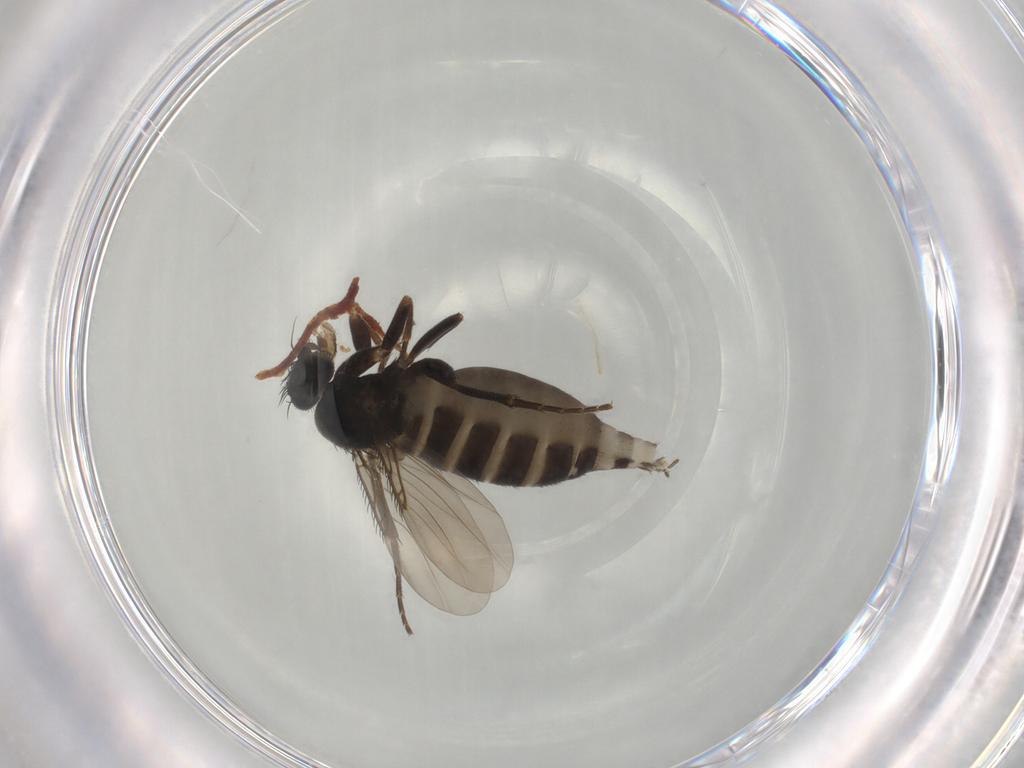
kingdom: Animalia
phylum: Arthropoda
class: Insecta
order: Diptera
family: Phoridae
